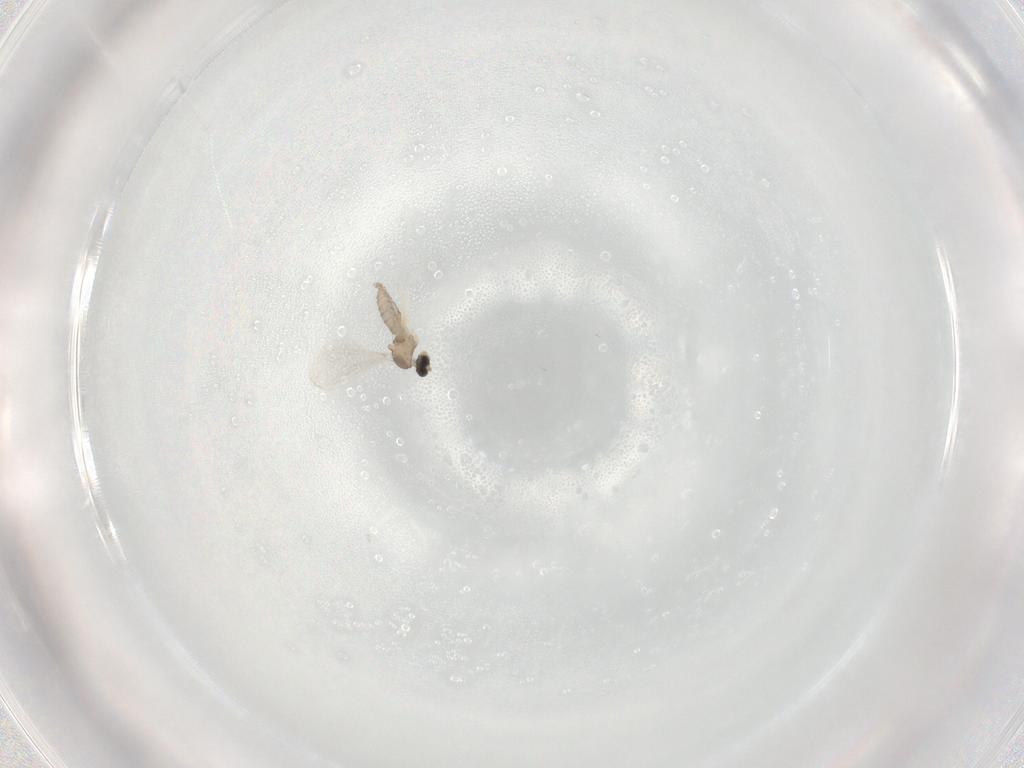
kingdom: Animalia
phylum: Arthropoda
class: Insecta
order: Diptera
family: Cecidomyiidae
